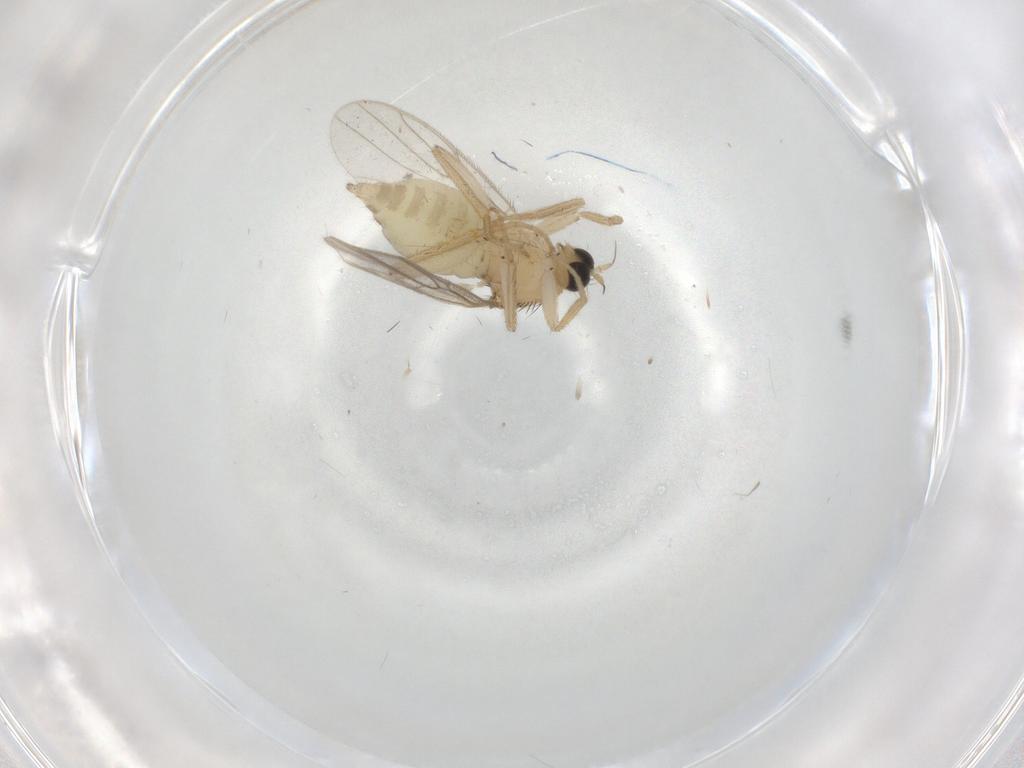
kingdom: Animalia
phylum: Arthropoda
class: Insecta
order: Diptera
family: Hybotidae
